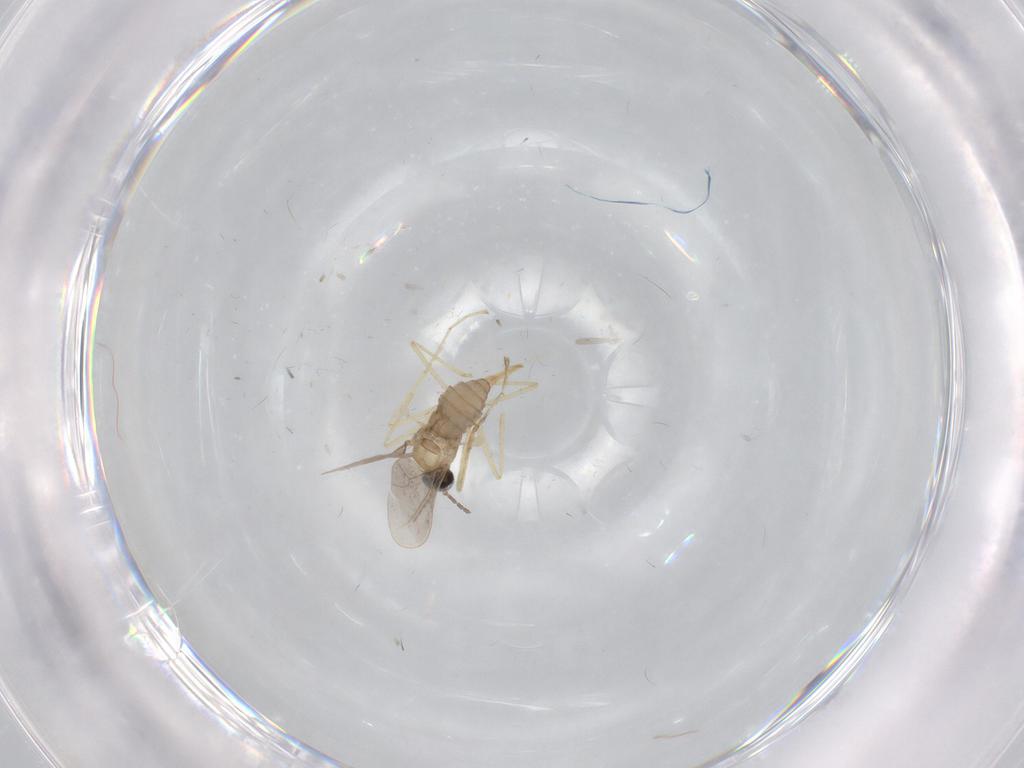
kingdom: Animalia
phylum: Arthropoda
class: Insecta
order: Diptera
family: Cecidomyiidae
